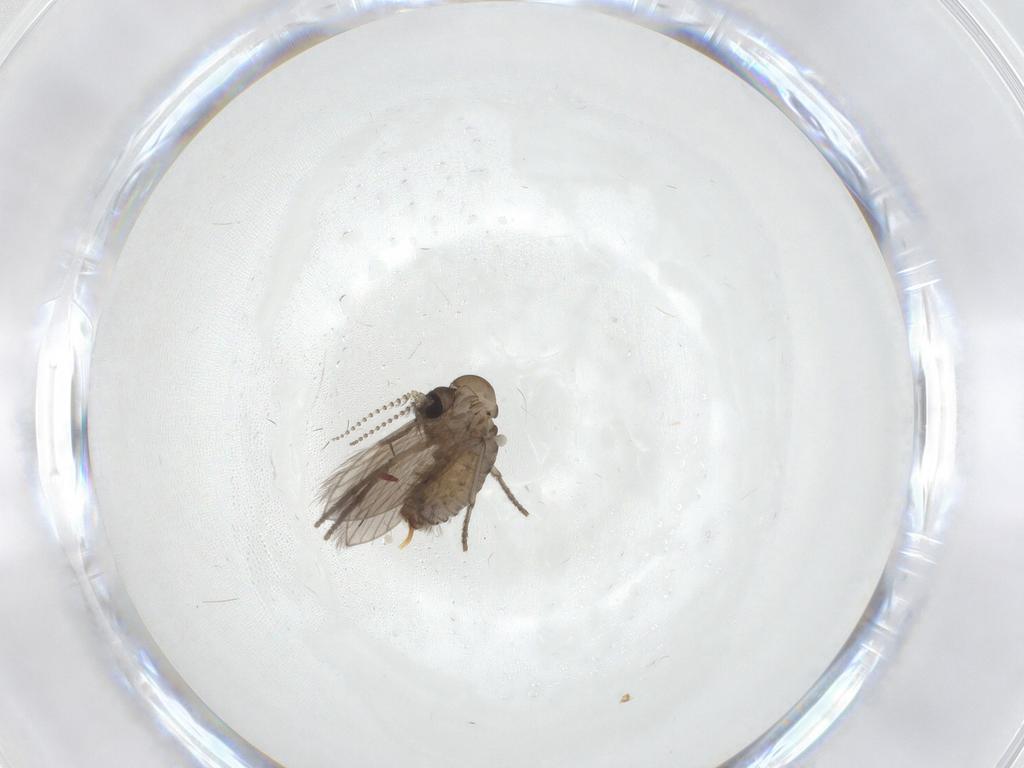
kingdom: Animalia
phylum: Arthropoda
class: Insecta
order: Diptera
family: Psychodidae
